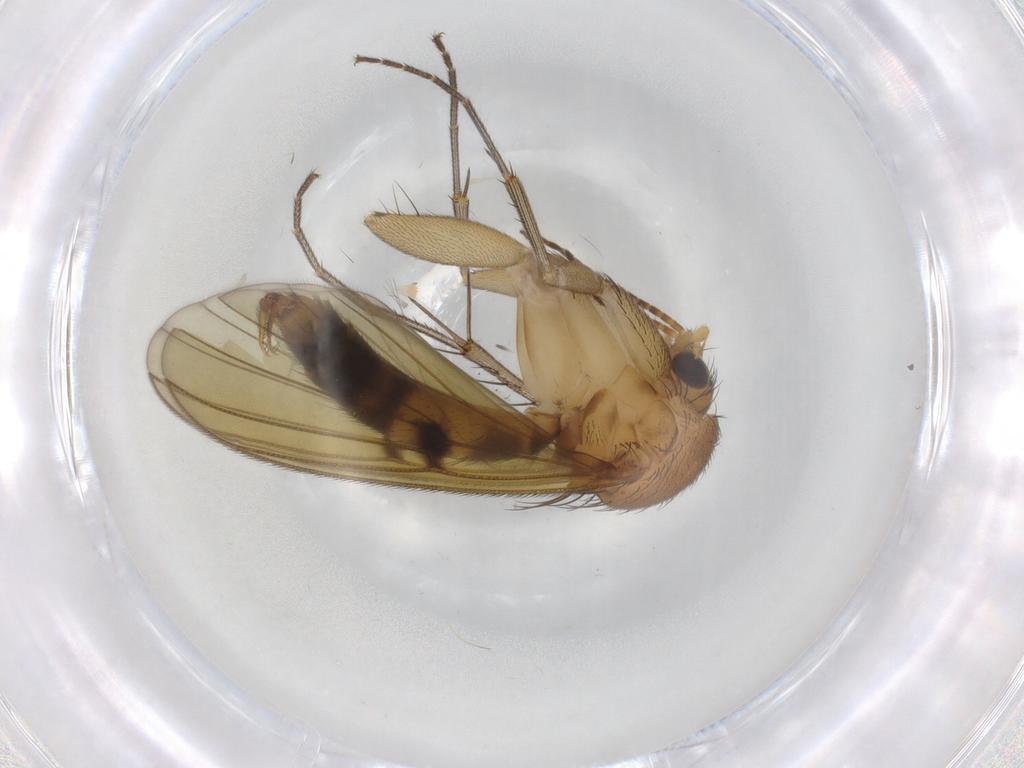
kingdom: Animalia
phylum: Arthropoda
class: Insecta
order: Diptera
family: Mycetophilidae
